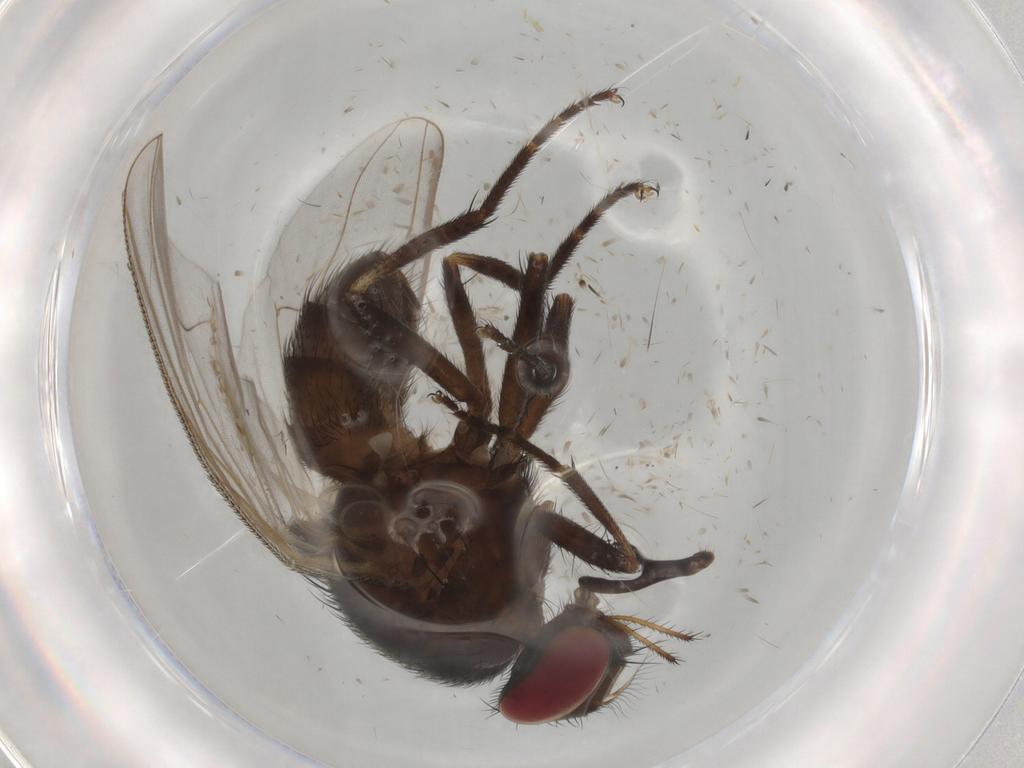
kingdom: Animalia
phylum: Arthropoda
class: Insecta
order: Diptera
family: Muscidae
